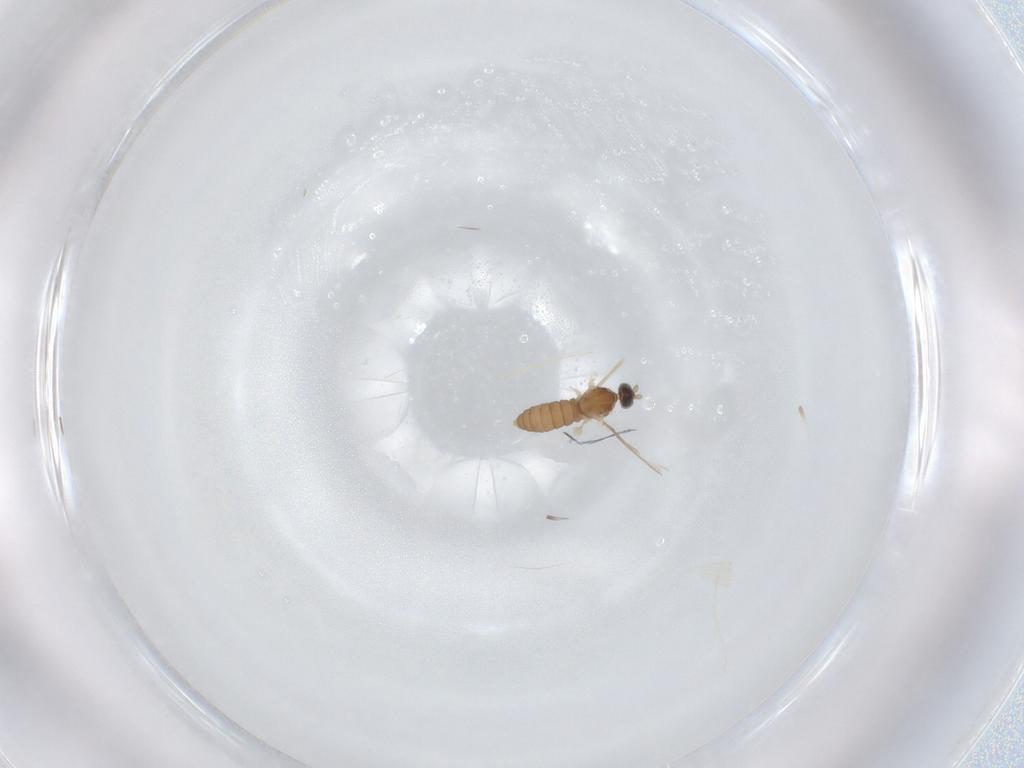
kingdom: Animalia
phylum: Arthropoda
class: Insecta
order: Diptera
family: Cecidomyiidae
